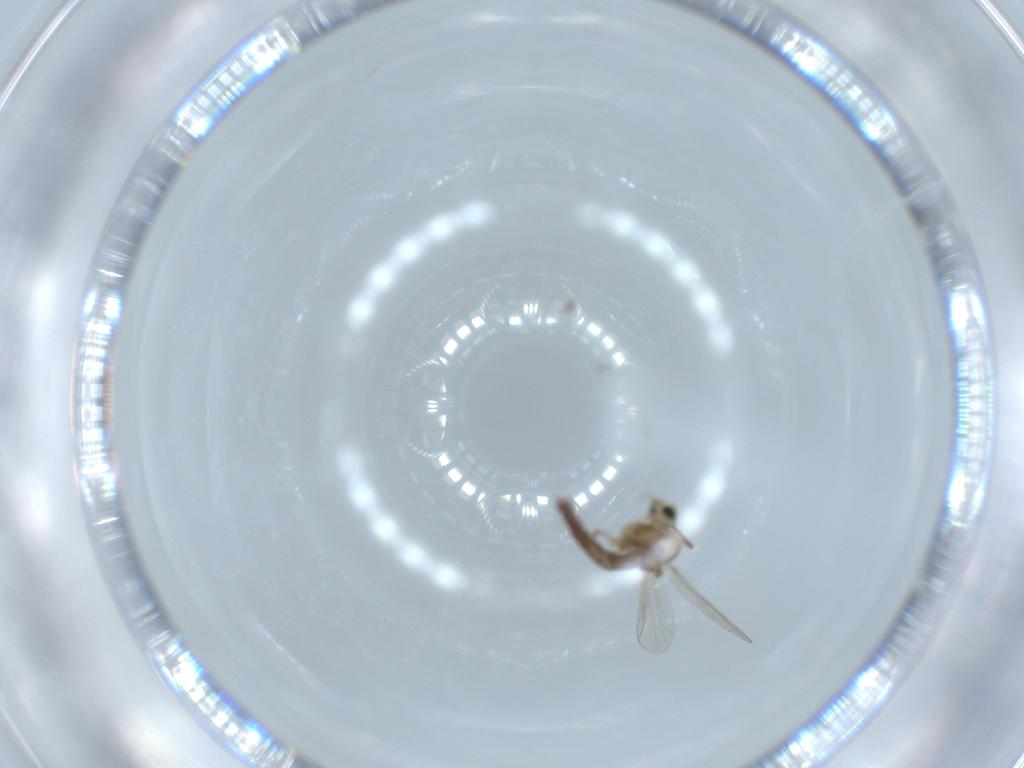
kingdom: Animalia
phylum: Arthropoda
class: Insecta
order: Diptera
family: Chironomidae
